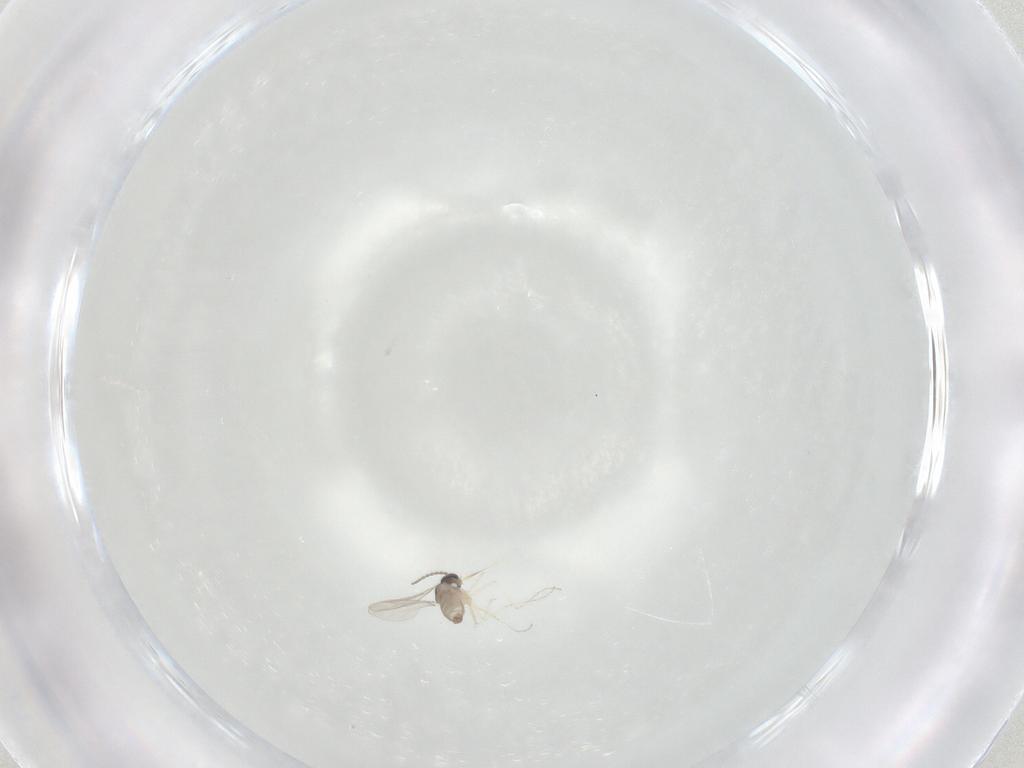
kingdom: Animalia
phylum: Arthropoda
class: Insecta
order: Diptera
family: Cecidomyiidae
